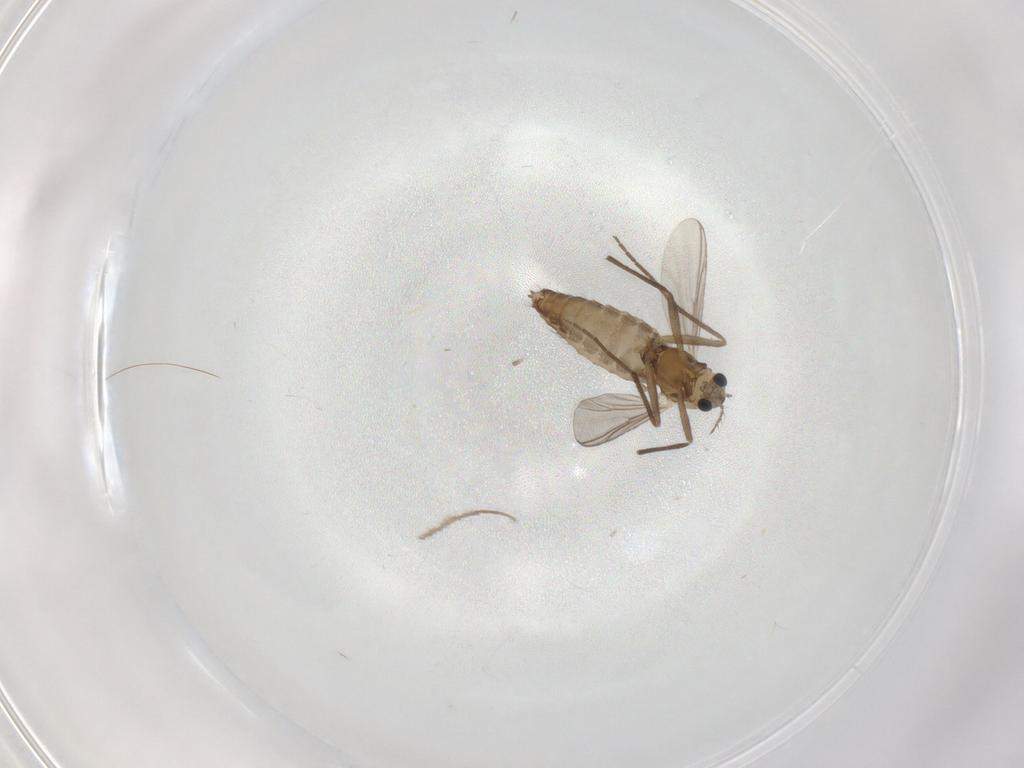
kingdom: Animalia
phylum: Arthropoda
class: Insecta
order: Diptera
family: Chironomidae
